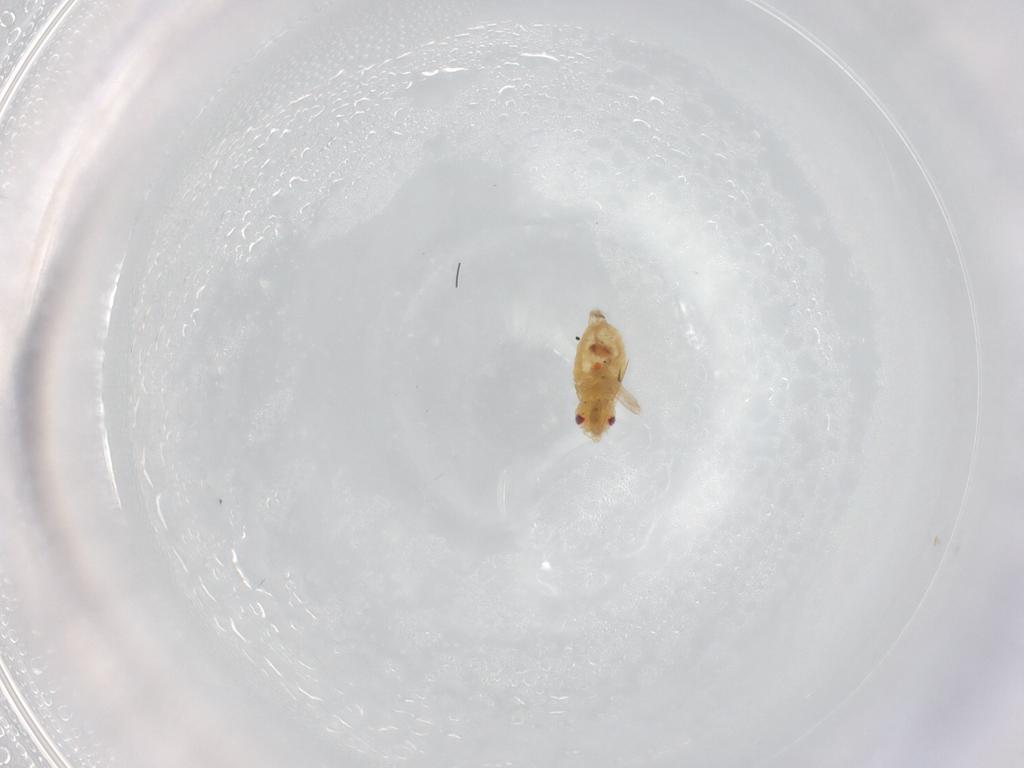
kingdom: Animalia
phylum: Arthropoda
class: Insecta
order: Hemiptera
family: Miridae
